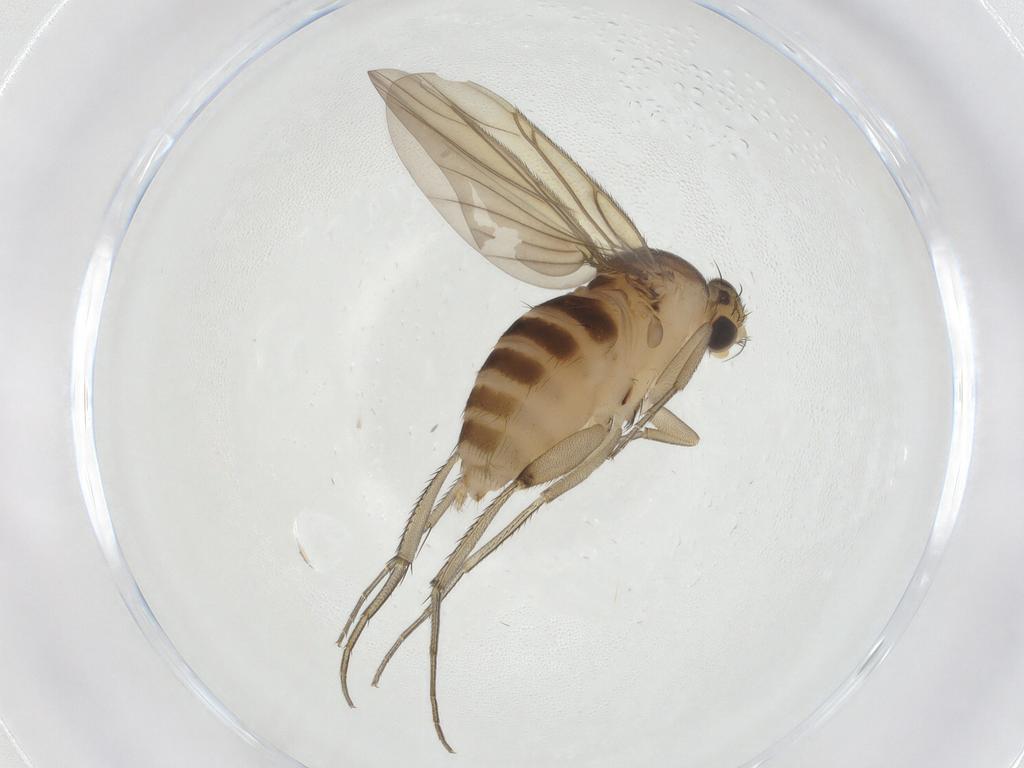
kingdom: Animalia
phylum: Arthropoda
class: Insecta
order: Diptera
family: Phoridae
